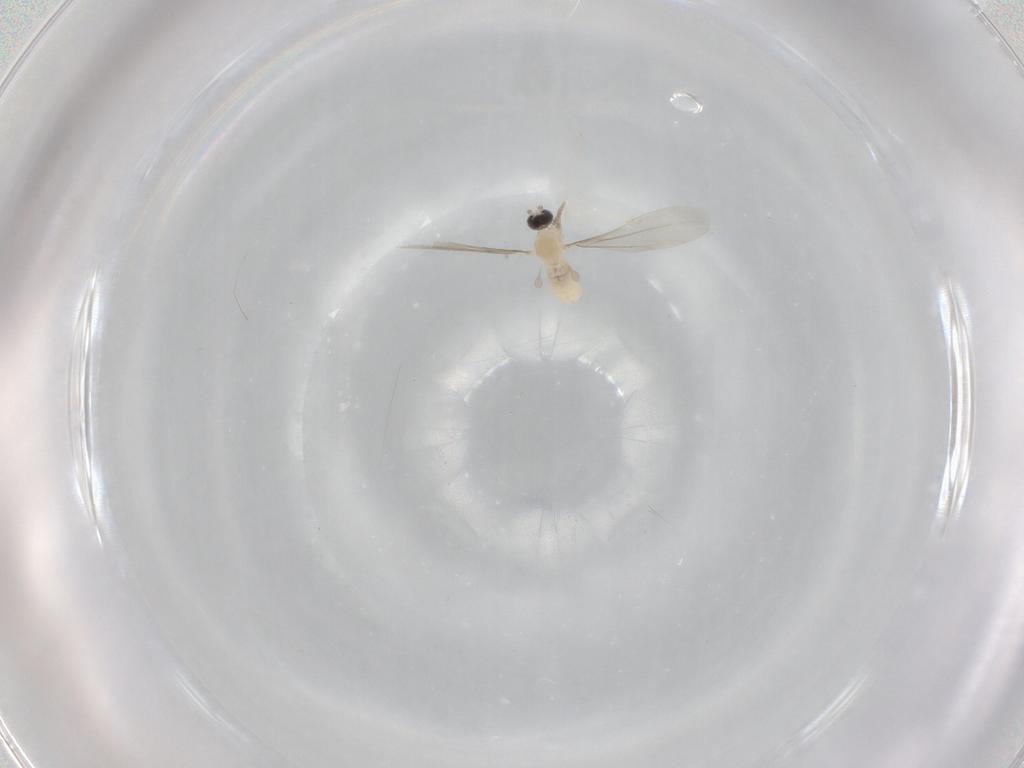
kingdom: Animalia
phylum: Arthropoda
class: Insecta
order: Diptera
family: Cecidomyiidae
